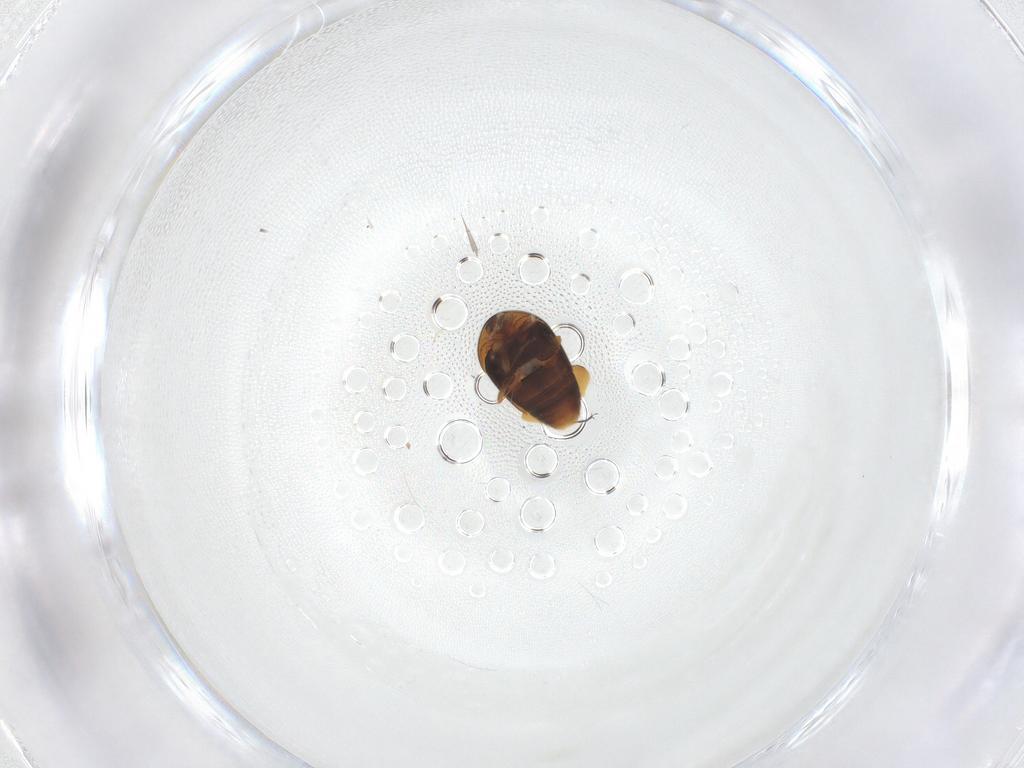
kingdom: Animalia
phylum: Arthropoda
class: Insecta
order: Coleoptera
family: Corylophidae
